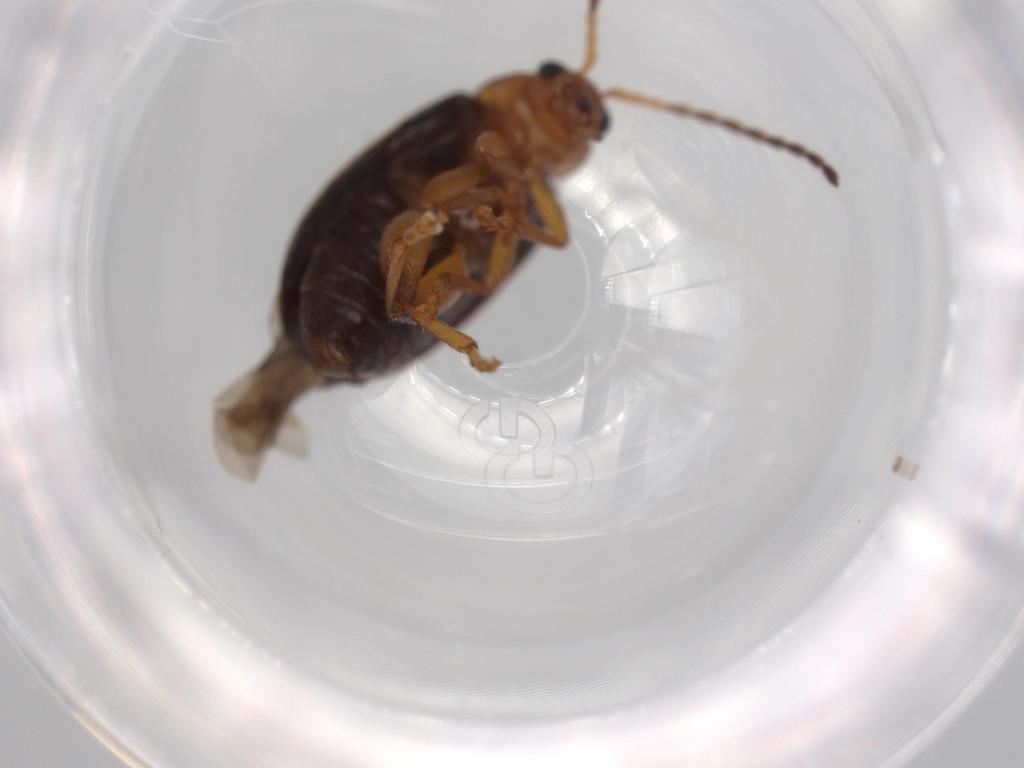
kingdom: Animalia
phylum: Arthropoda
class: Insecta
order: Coleoptera
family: Chrysomelidae
